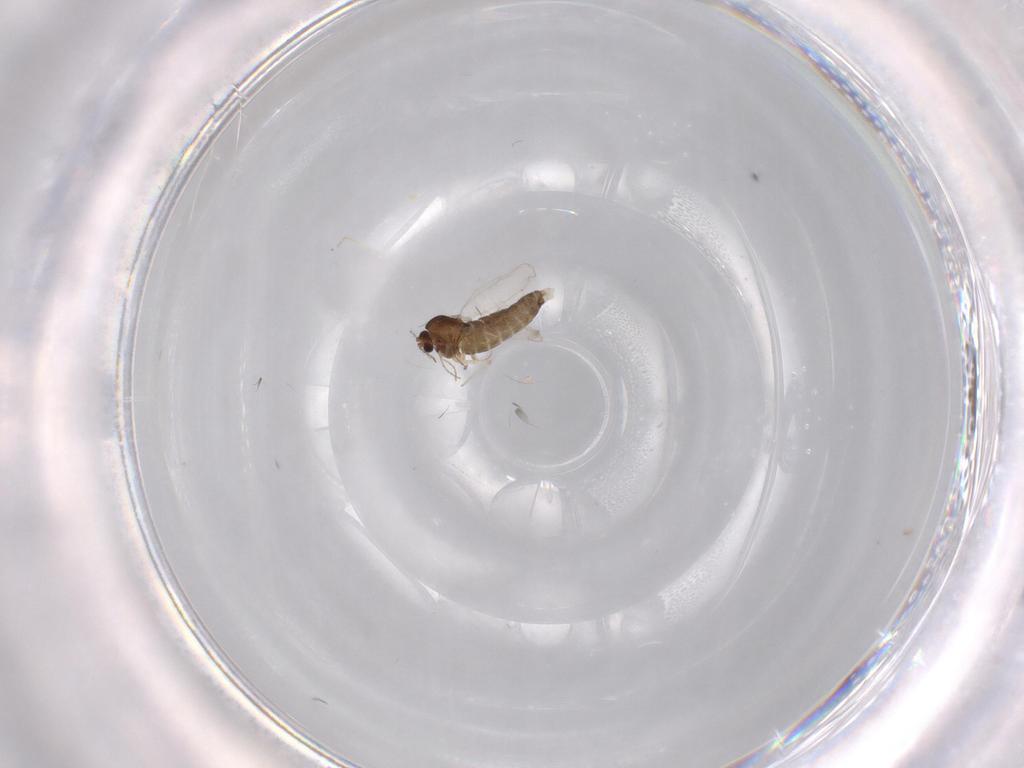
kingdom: Animalia
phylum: Arthropoda
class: Insecta
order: Diptera
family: Chironomidae
